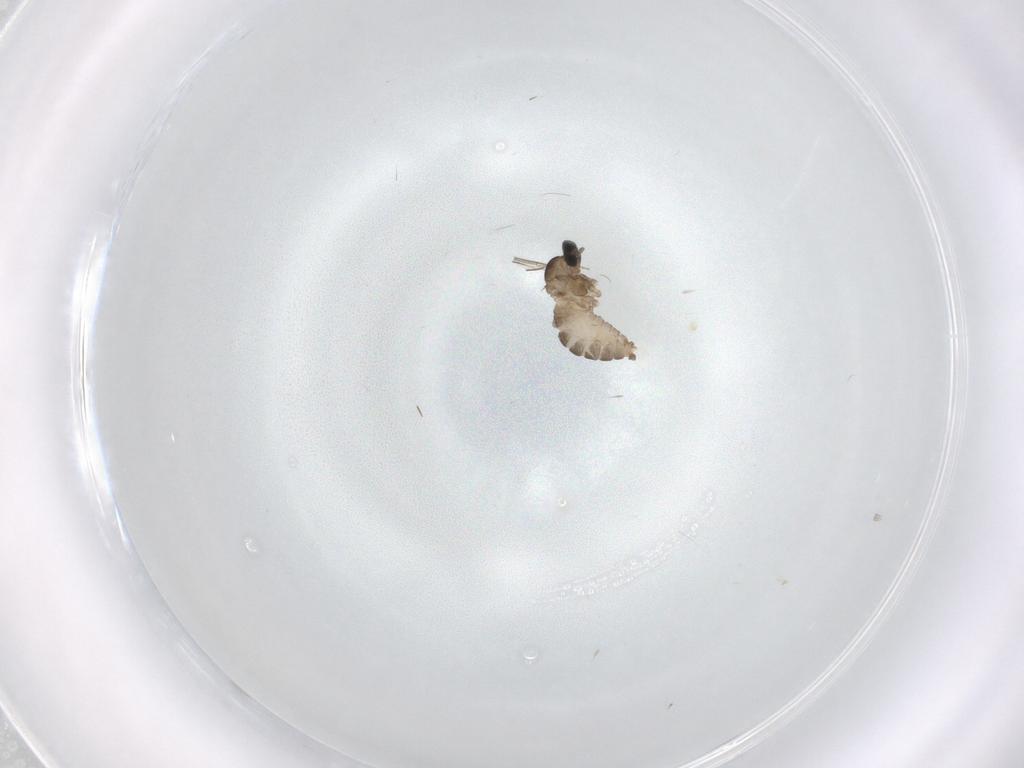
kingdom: Animalia
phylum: Arthropoda
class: Insecta
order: Diptera
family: Cecidomyiidae
